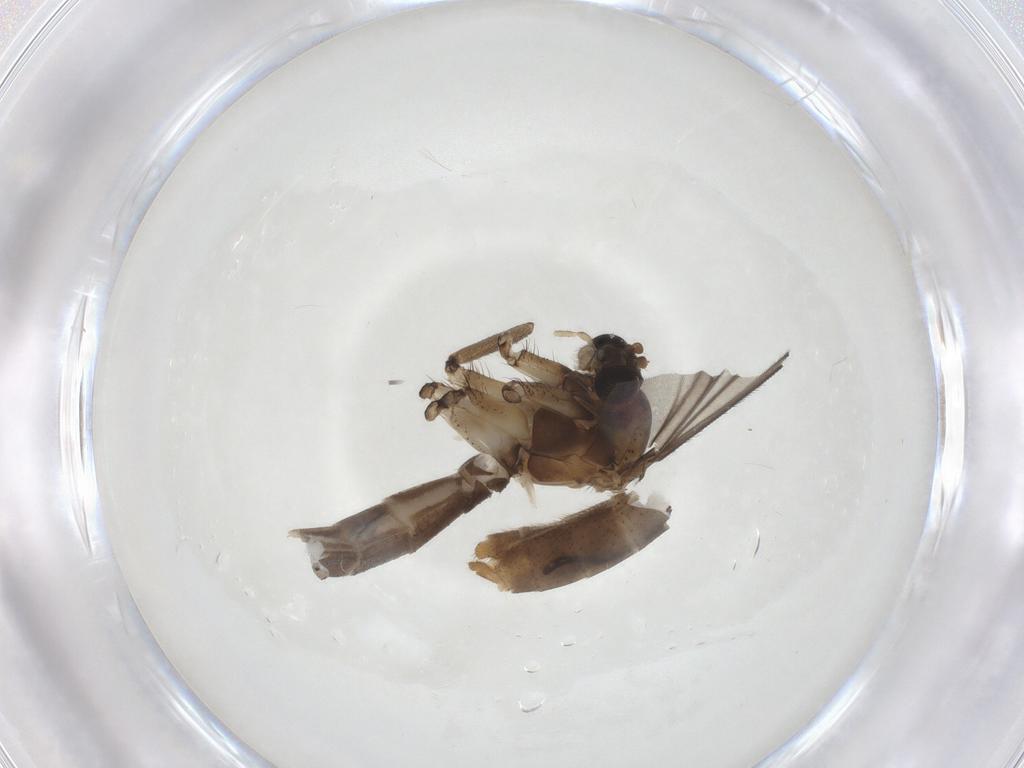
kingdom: Animalia
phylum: Arthropoda
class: Insecta
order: Diptera
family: Mycetophilidae
